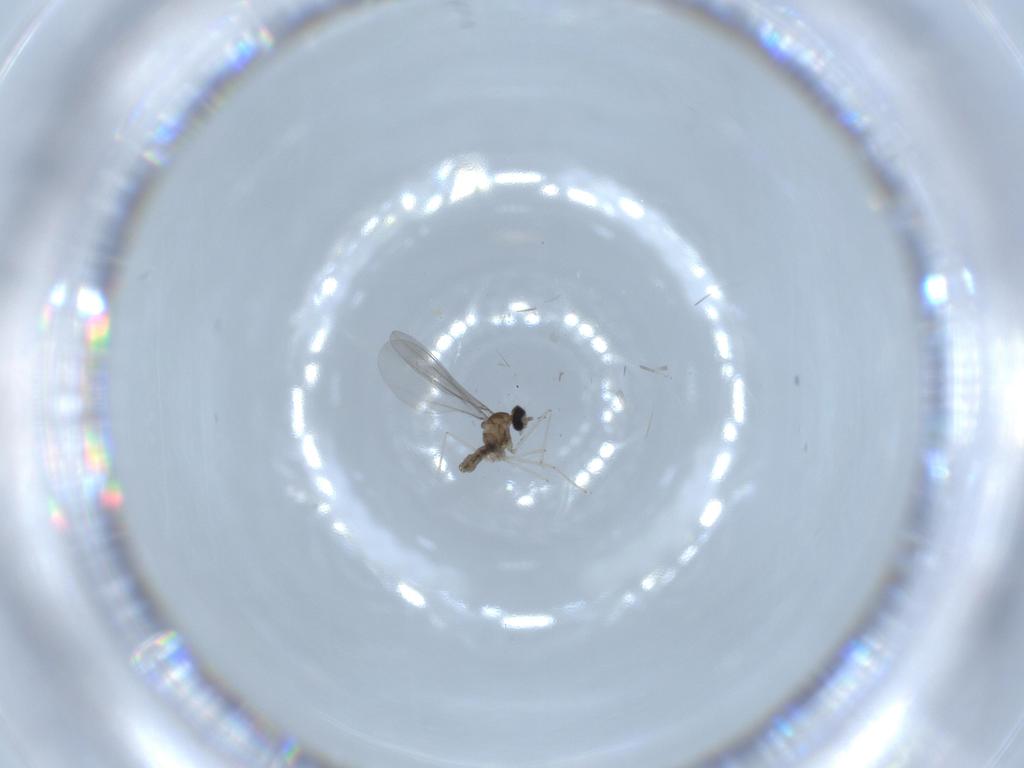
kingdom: Animalia
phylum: Arthropoda
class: Insecta
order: Diptera
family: Cecidomyiidae
